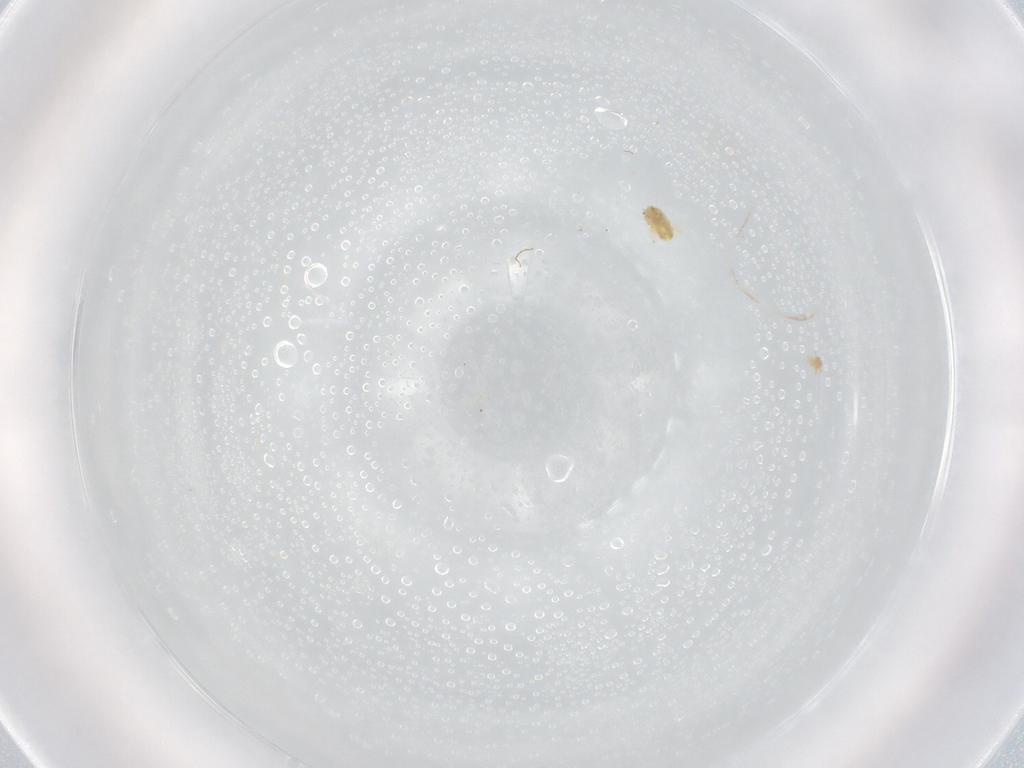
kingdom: Animalia
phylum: Arthropoda
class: Arachnida
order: Trombidiformes
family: Eupodidae
